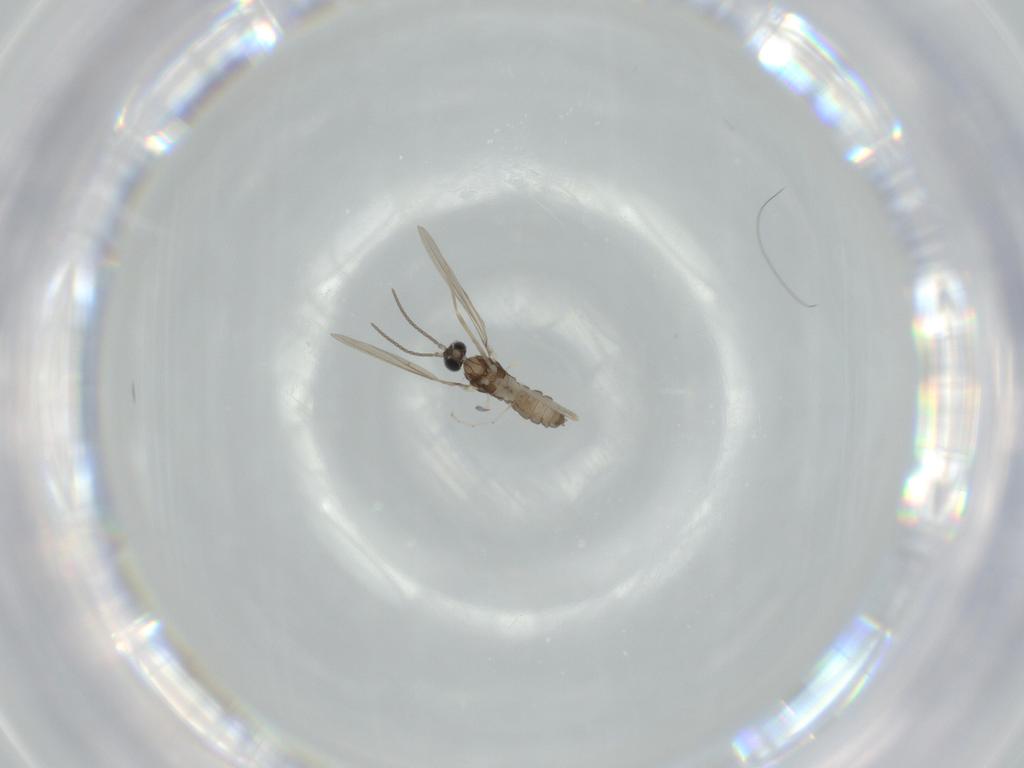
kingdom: Animalia
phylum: Arthropoda
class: Insecta
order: Diptera
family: Cecidomyiidae
